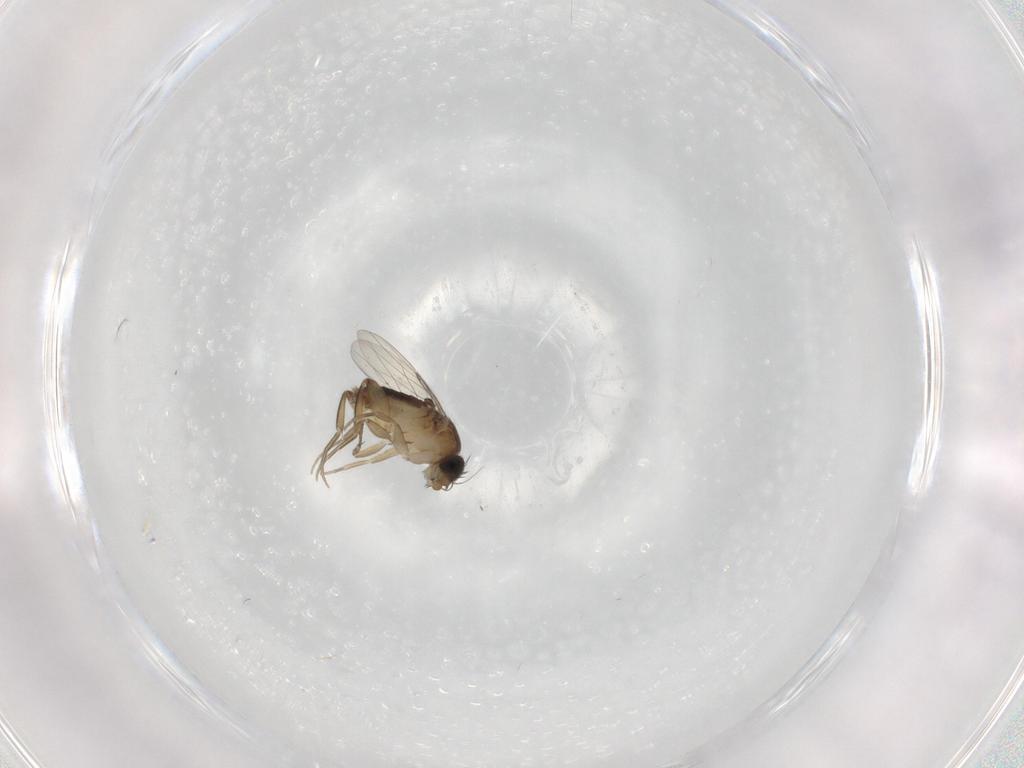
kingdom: Animalia
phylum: Arthropoda
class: Insecta
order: Diptera
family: Phoridae
